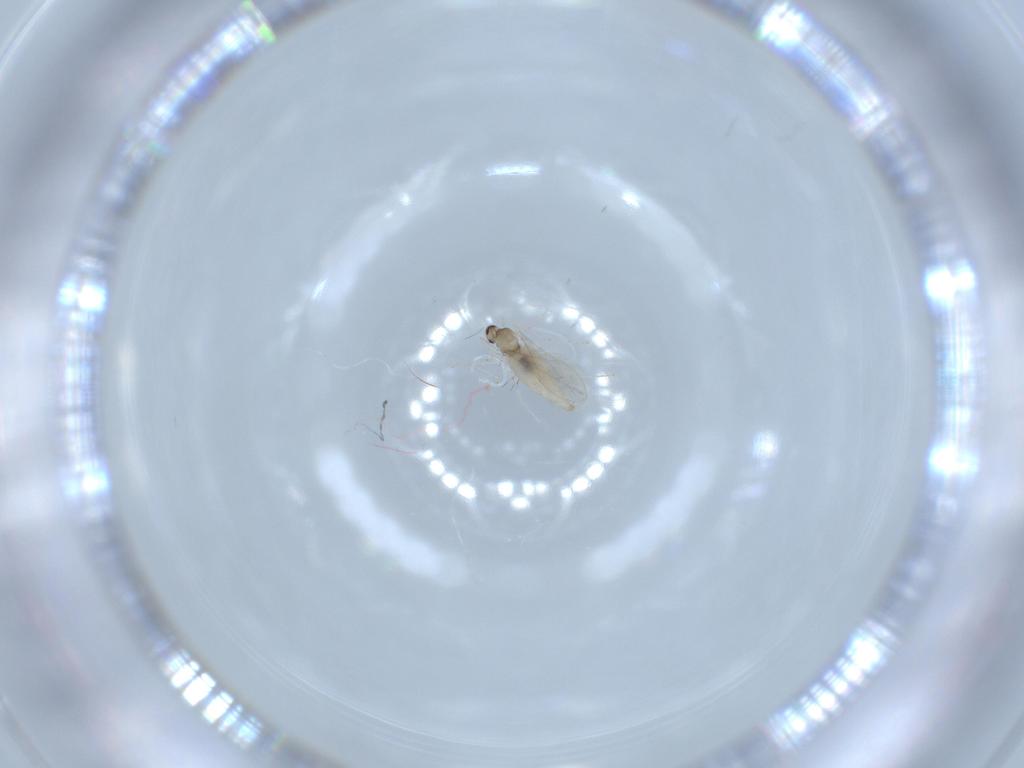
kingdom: Animalia
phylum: Arthropoda
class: Insecta
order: Diptera
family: Cecidomyiidae
